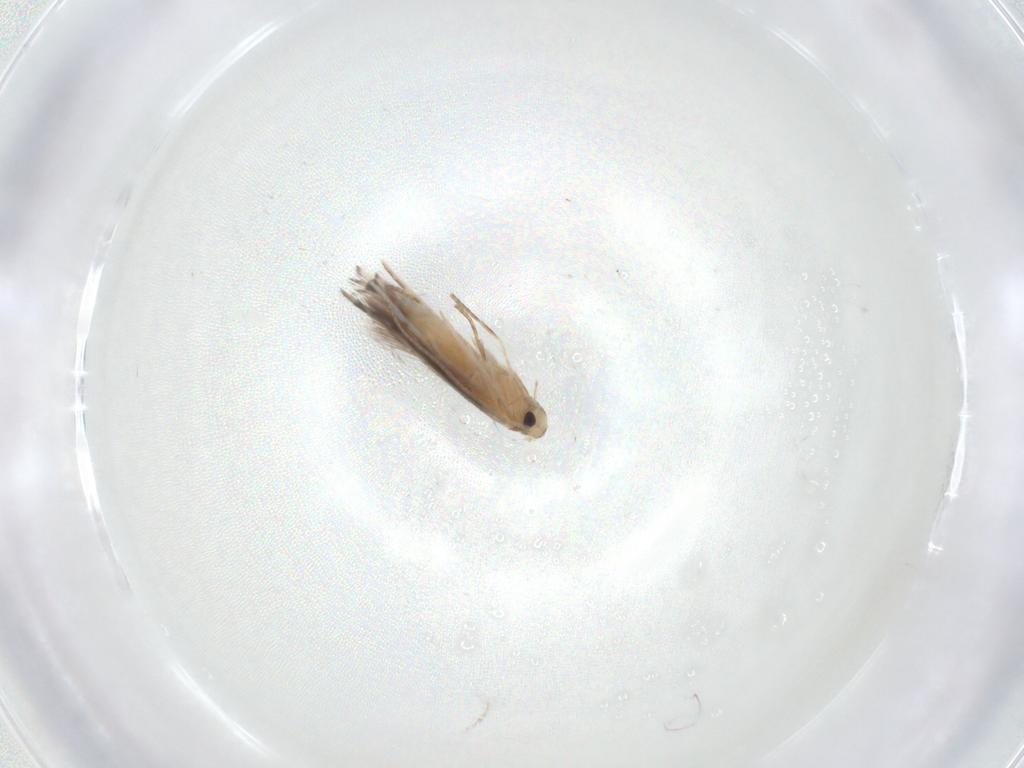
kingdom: Animalia
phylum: Arthropoda
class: Insecta
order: Lepidoptera
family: Gracillariidae
